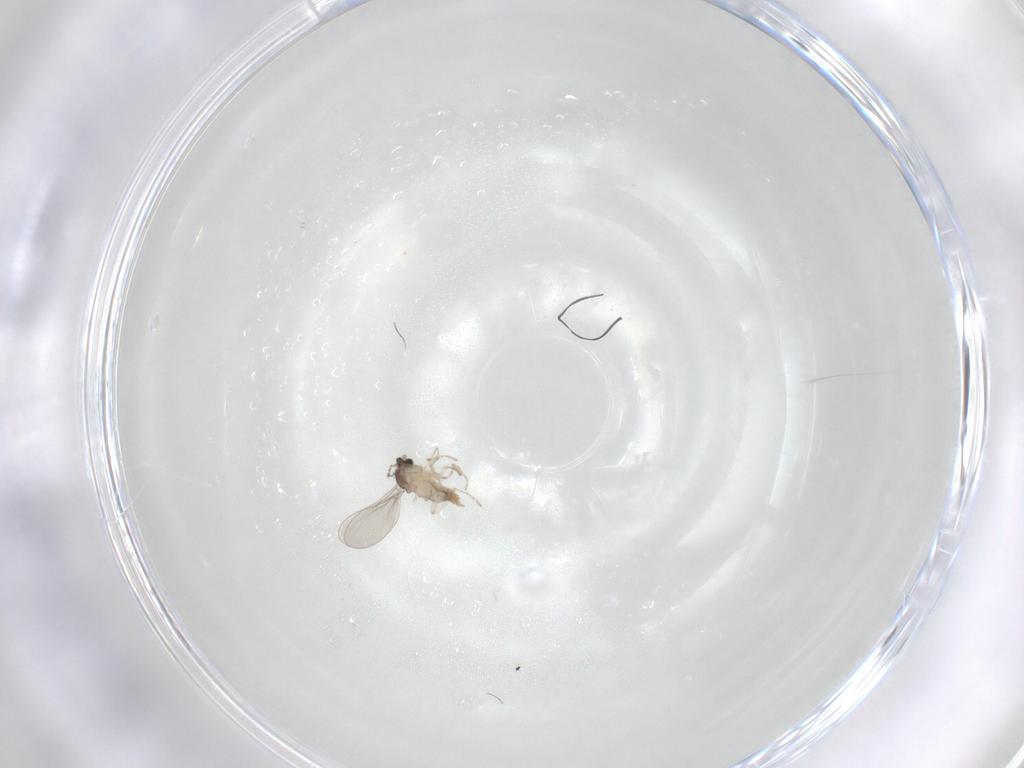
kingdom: Animalia
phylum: Arthropoda
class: Insecta
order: Diptera
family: Cecidomyiidae
